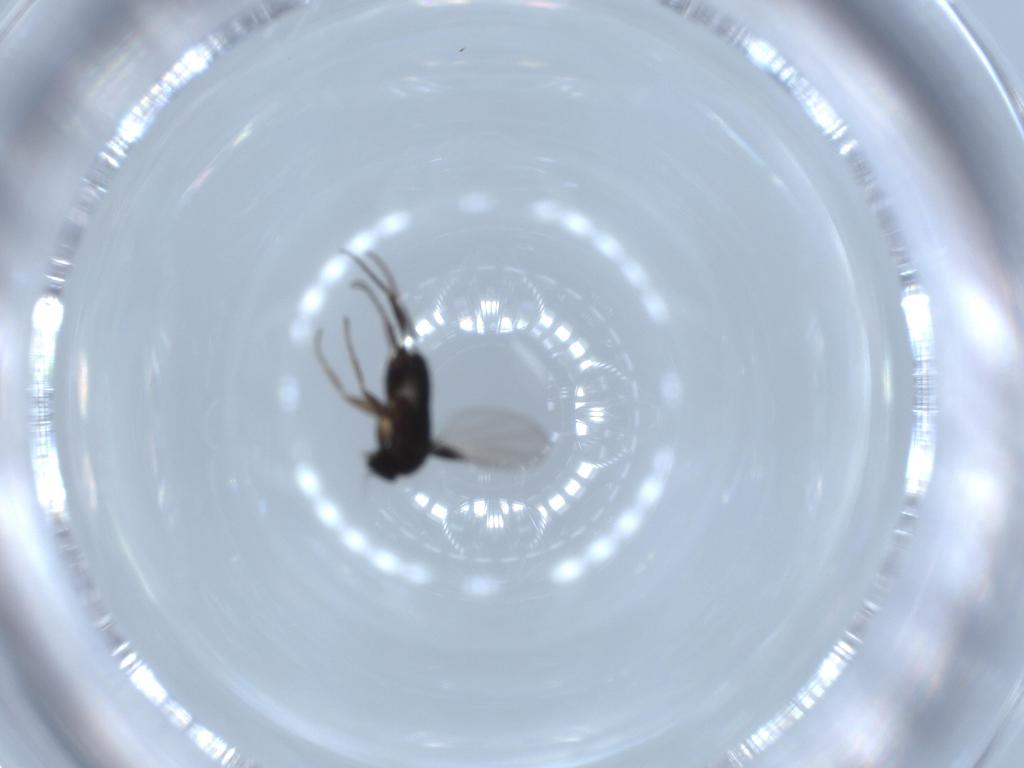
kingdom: Animalia
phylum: Arthropoda
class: Insecta
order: Diptera
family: Phoridae
